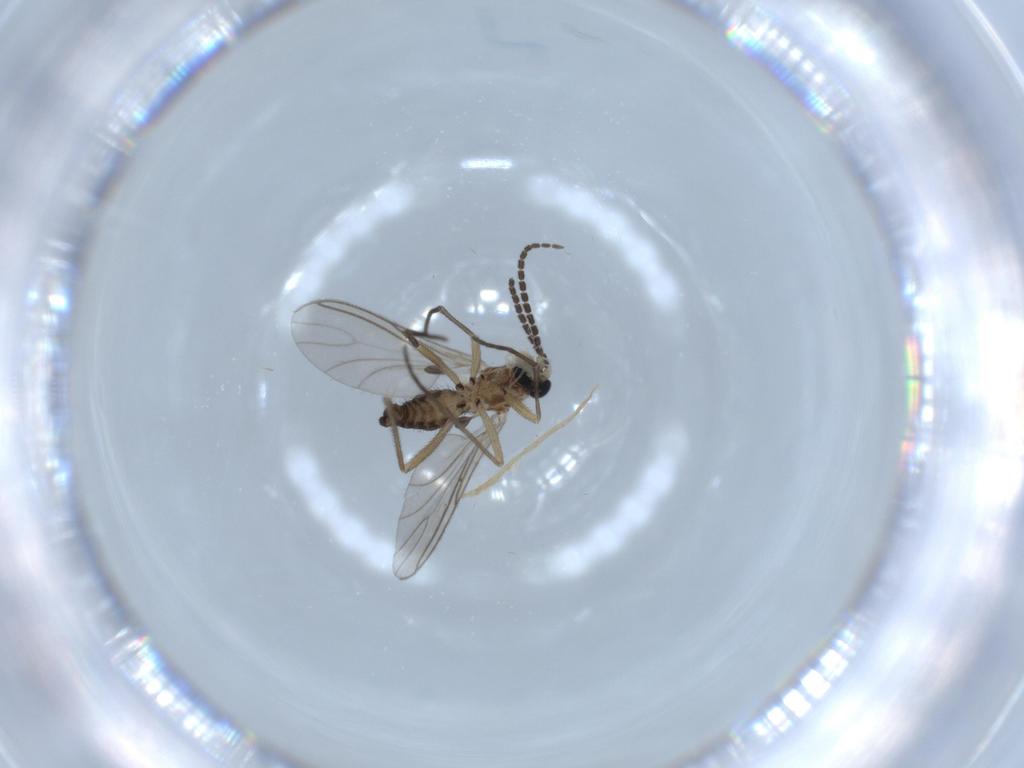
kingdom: Animalia
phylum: Arthropoda
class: Insecta
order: Diptera
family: Sciaridae
